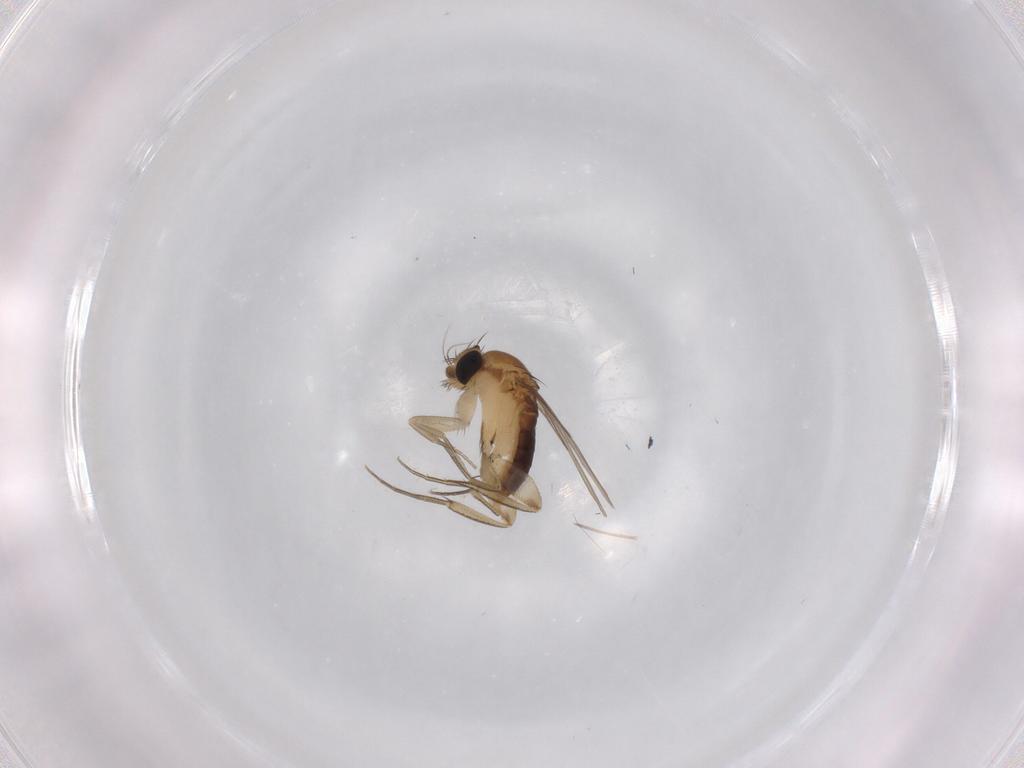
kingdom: Animalia
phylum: Arthropoda
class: Insecta
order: Diptera
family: Phoridae
